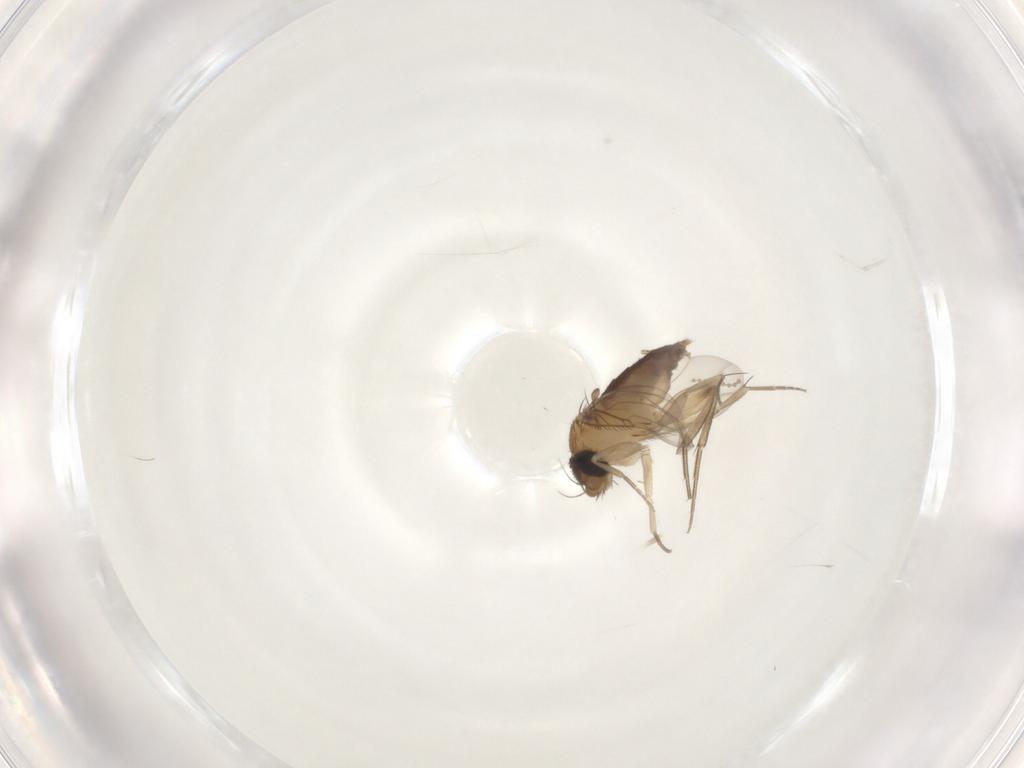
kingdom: Animalia
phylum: Arthropoda
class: Insecta
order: Diptera
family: Phoridae
